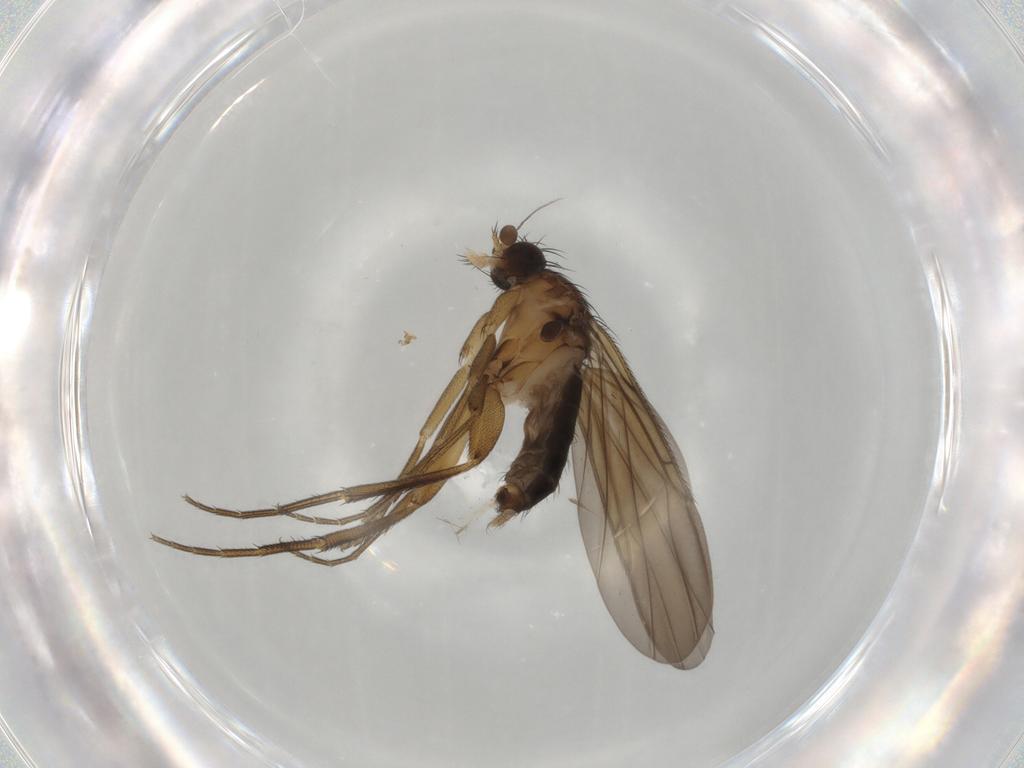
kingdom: Animalia
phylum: Arthropoda
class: Insecta
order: Diptera
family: Phoridae
